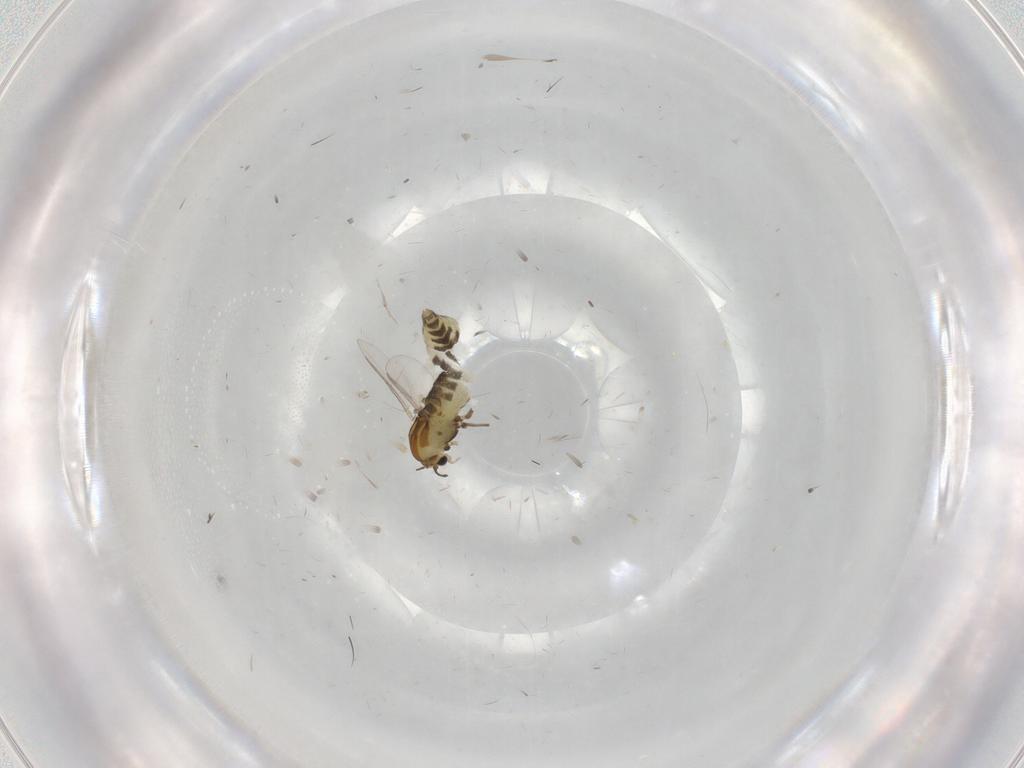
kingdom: Animalia
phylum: Arthropoda
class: Insecta
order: Diptera
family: Chironomidae
